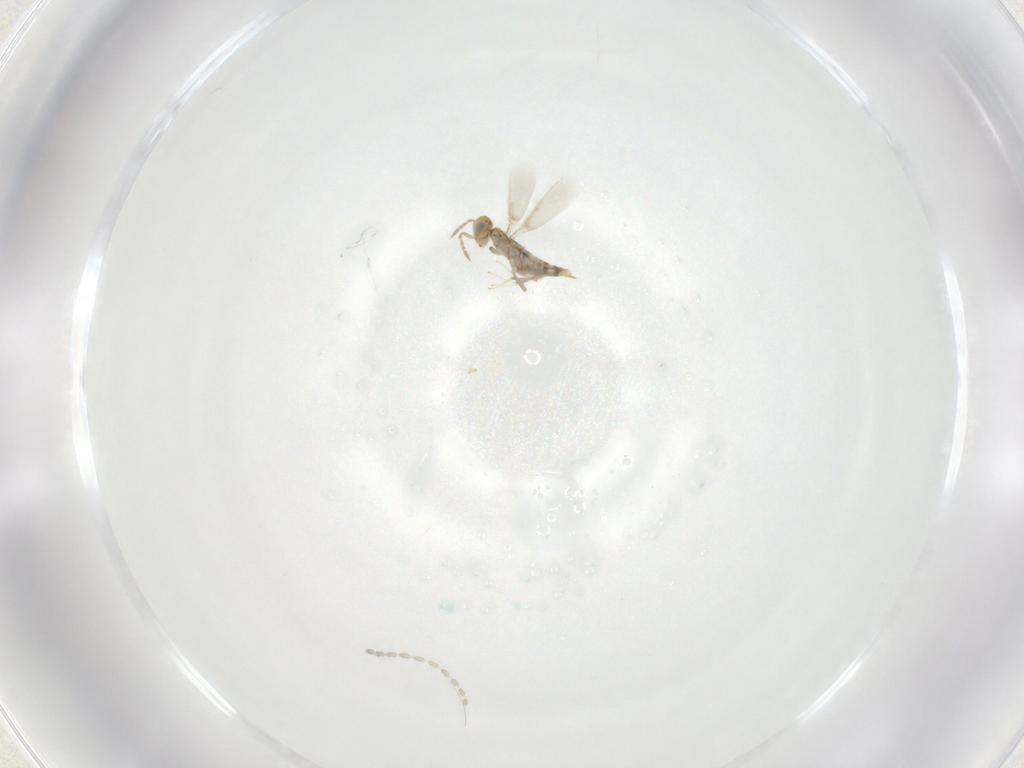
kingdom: Animalia
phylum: Arthropoda
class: Insecta
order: Hymenoptera
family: Aphelinidae
